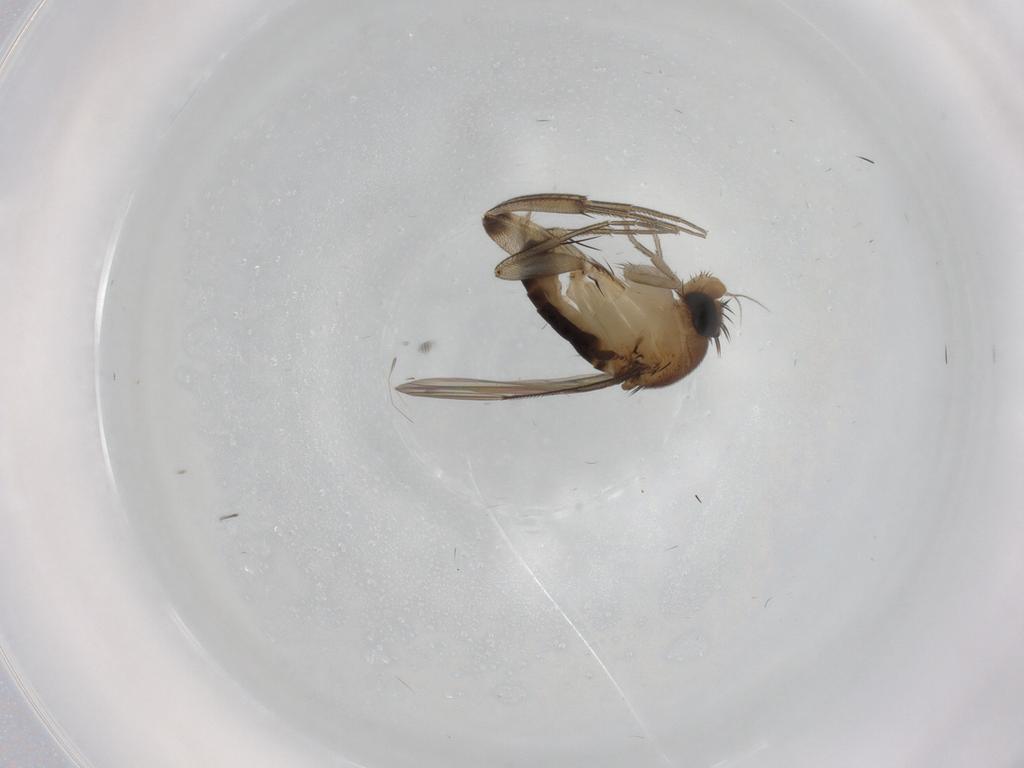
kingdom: Animalia
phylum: Arthropoda
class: Insecta
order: Diptera
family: Phoridae
